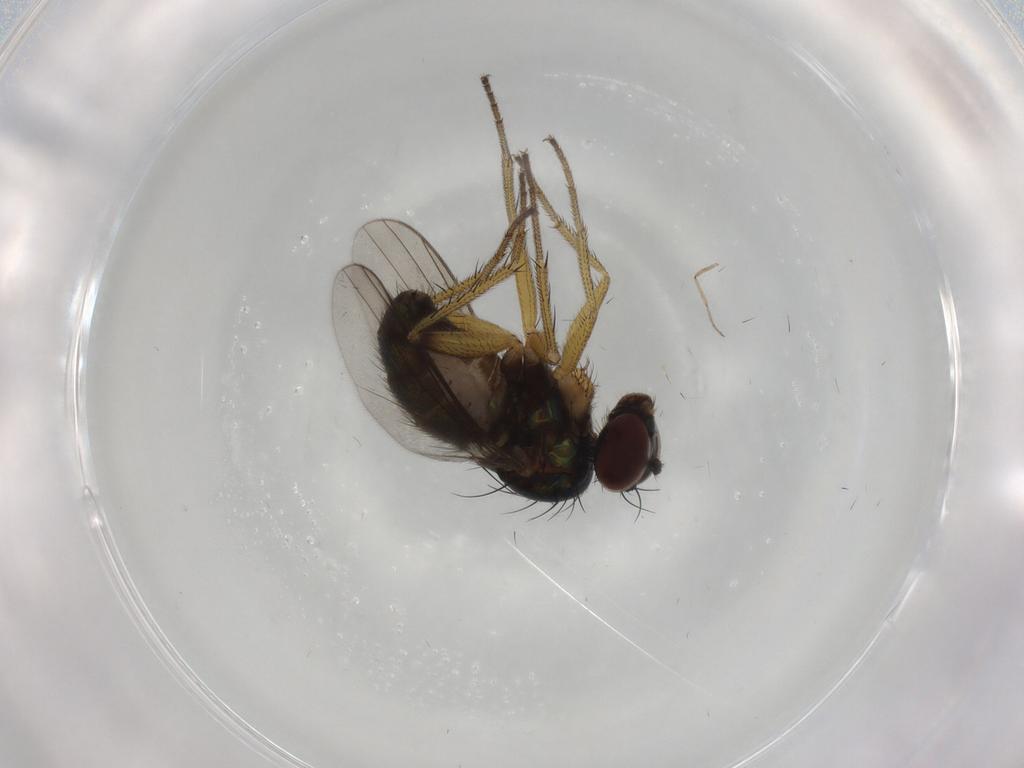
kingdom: Animalia
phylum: Arthropoda
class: Insecta
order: Diptera
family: Dolichopodidae
